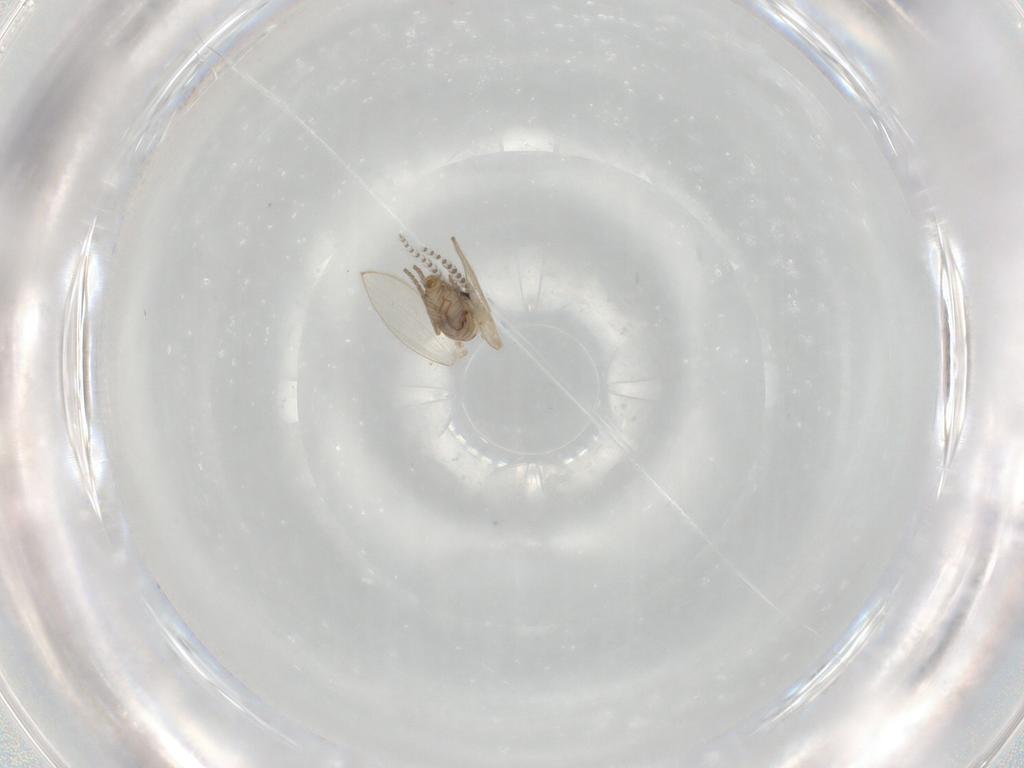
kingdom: Animalia
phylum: Arthropoda
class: Insecta
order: Diptera
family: Psychodidae
